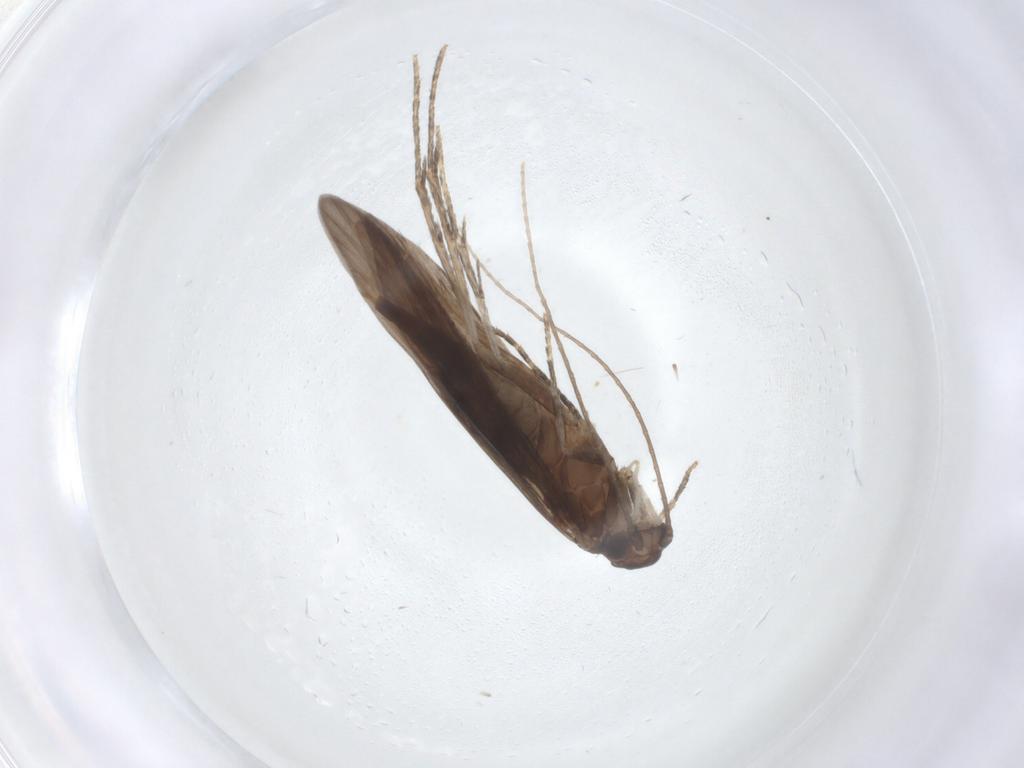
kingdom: Animalia
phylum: Arthropoda
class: Insecta
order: Trichoptera
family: Xiphocentronidae
